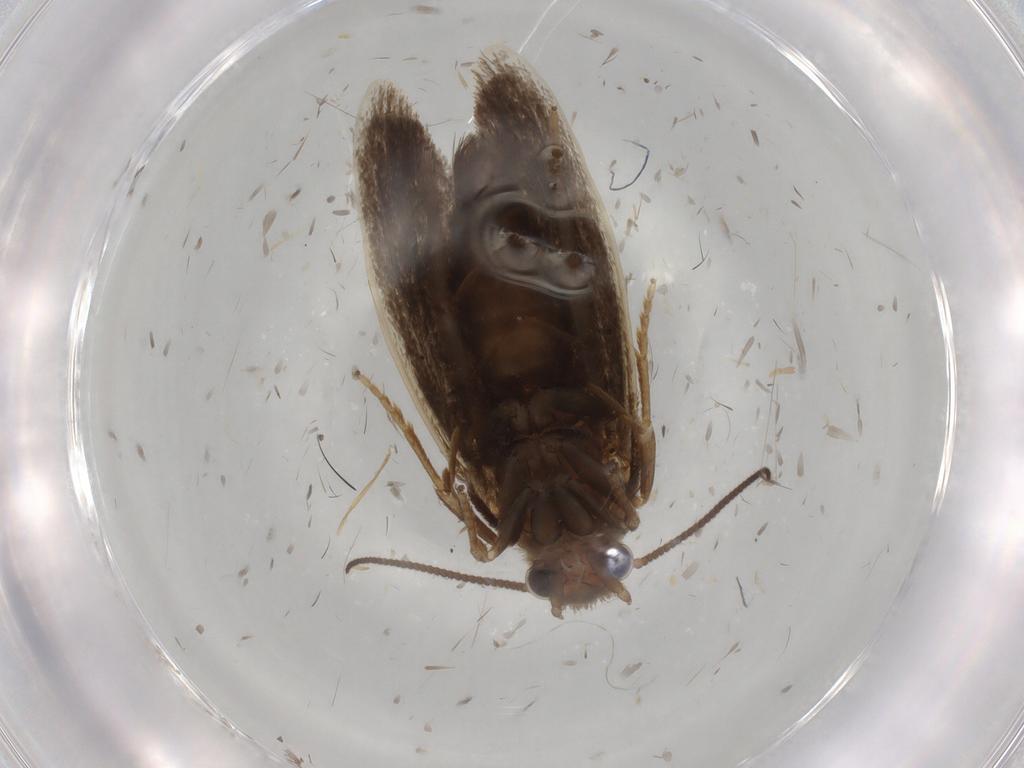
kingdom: Animalia
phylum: Arthropoda
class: Insecta
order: Lepidoptera
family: Tineidae
